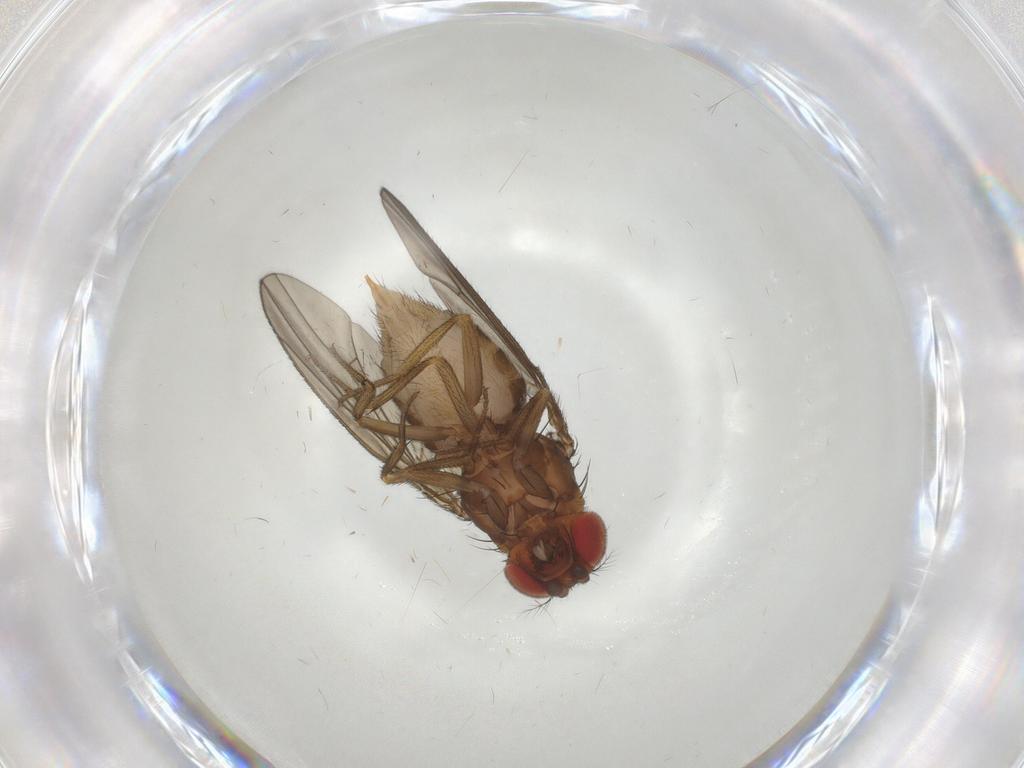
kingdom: Animalia
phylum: Arthropoda
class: Insecta
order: Diptera
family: Drosophilidae
